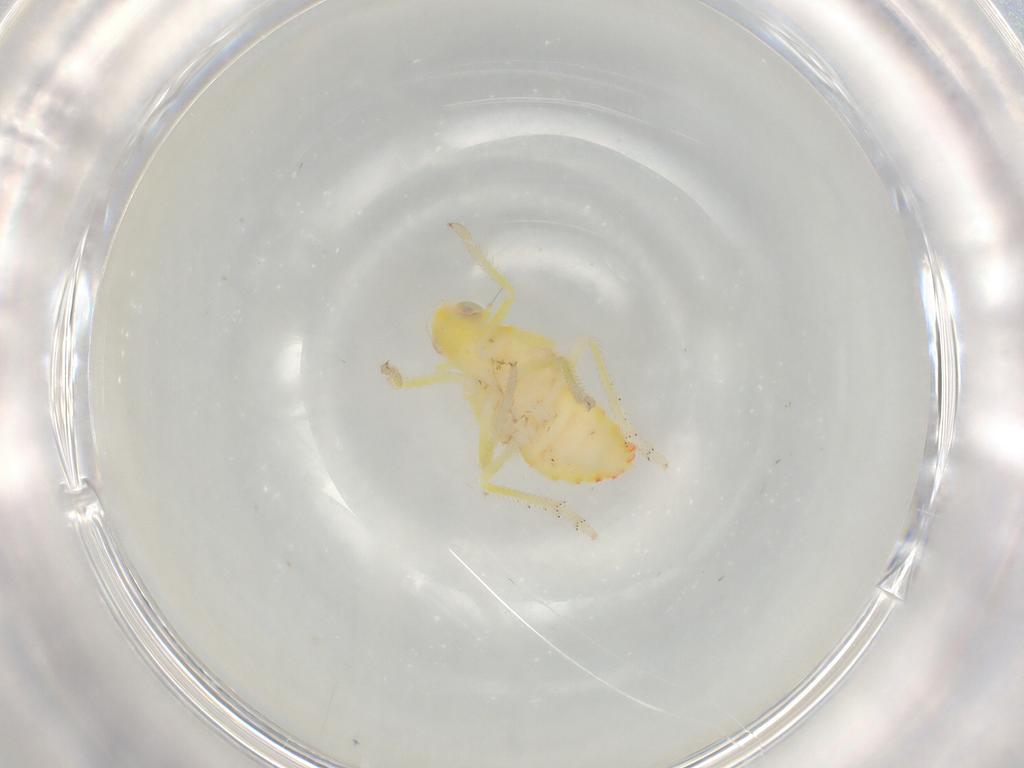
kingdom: Animalia
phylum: Arthropoda
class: Insecta
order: Hemiptera
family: Tropiduchidae
